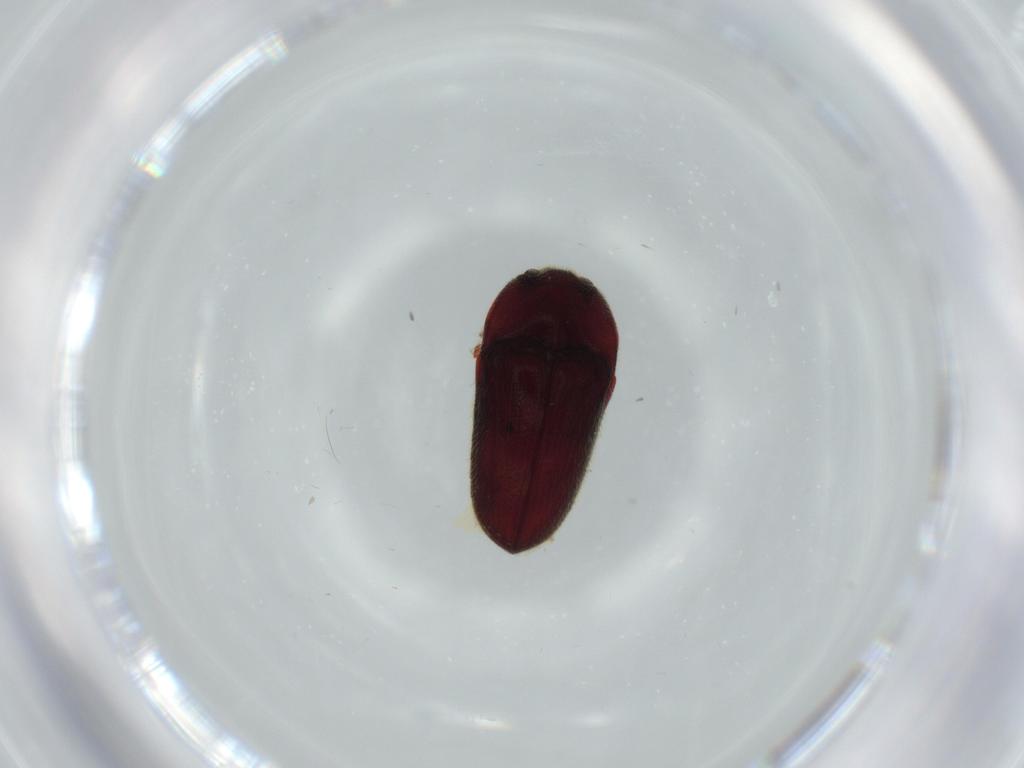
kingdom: Animalia
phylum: Arthropoda
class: Insecta
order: Coleoptera
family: Throscidae
